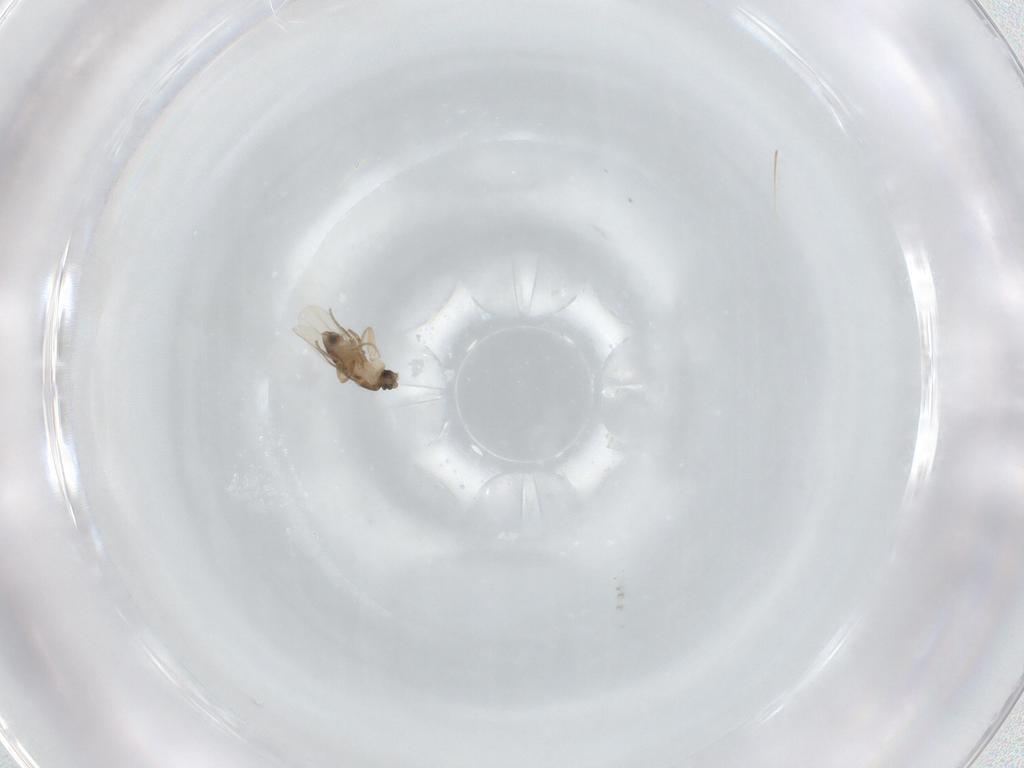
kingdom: Animalia
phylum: Arthropoda
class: Insecta
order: Diptera
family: Phoridae
